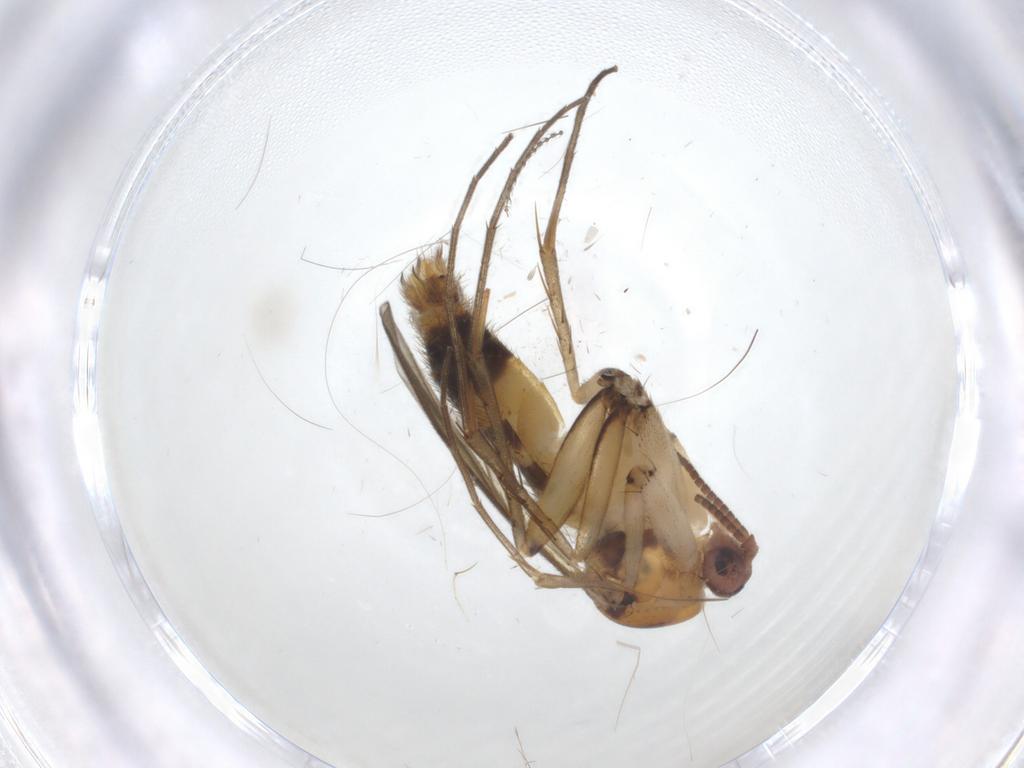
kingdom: Animalia
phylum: Arthropoda
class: Insecta
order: Diptera
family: Mycetophilidae
